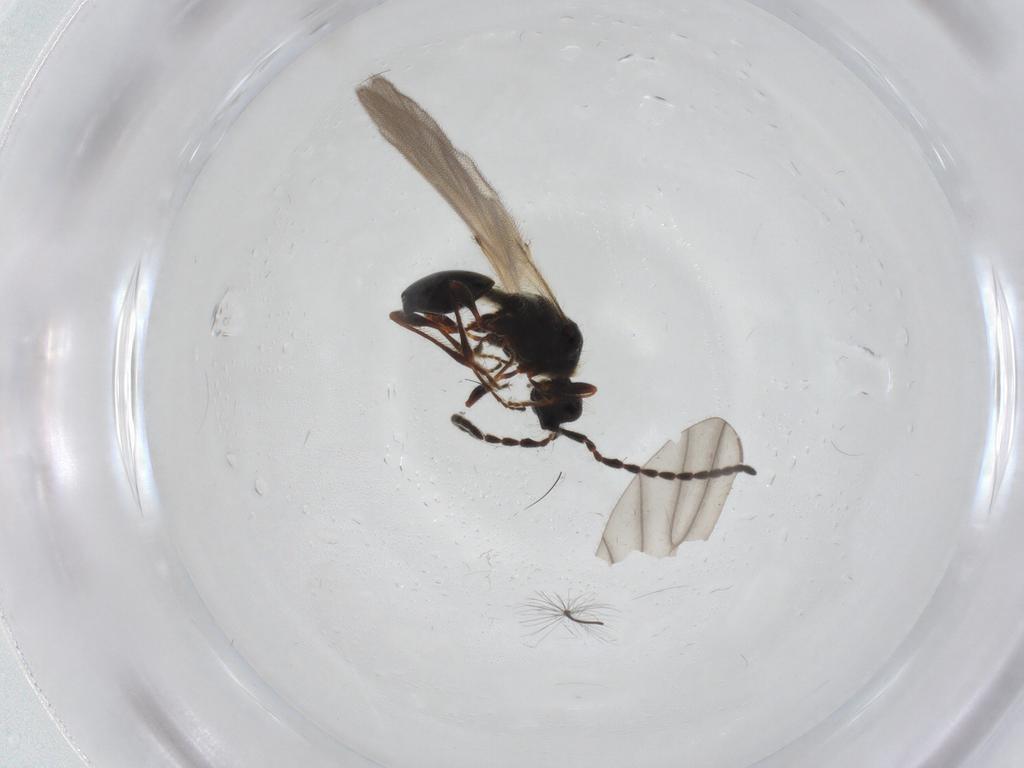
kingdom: Animalia
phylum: Arthropoda
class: Insecta
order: Hymenoptera
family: Diapriidae
